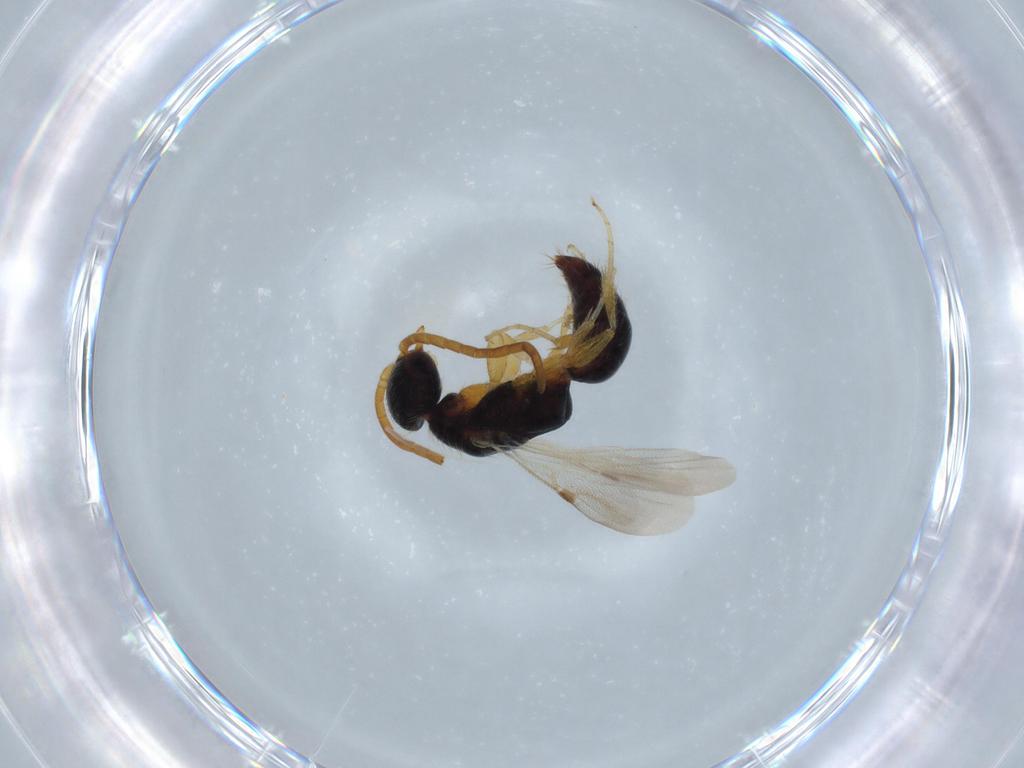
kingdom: Animalia
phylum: Arthropoda
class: Insecta
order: Hymenoptera
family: Bethylidae
